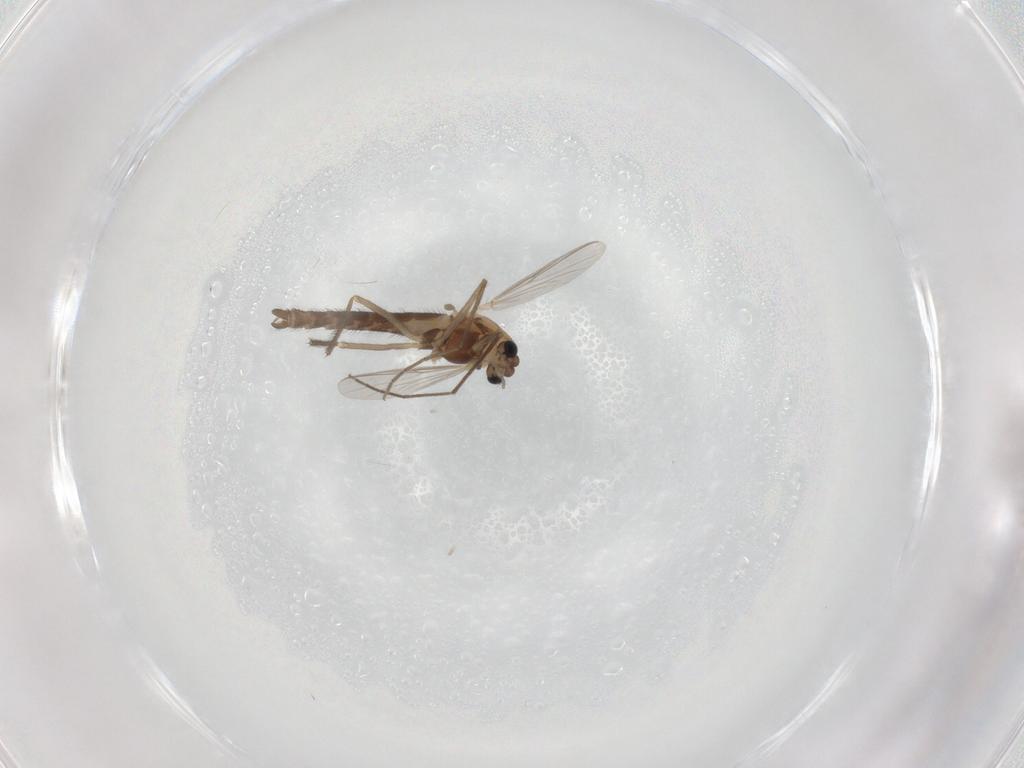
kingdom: Animalia
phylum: Arthropoda
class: Insecta
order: Diptera
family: Chironomidae
